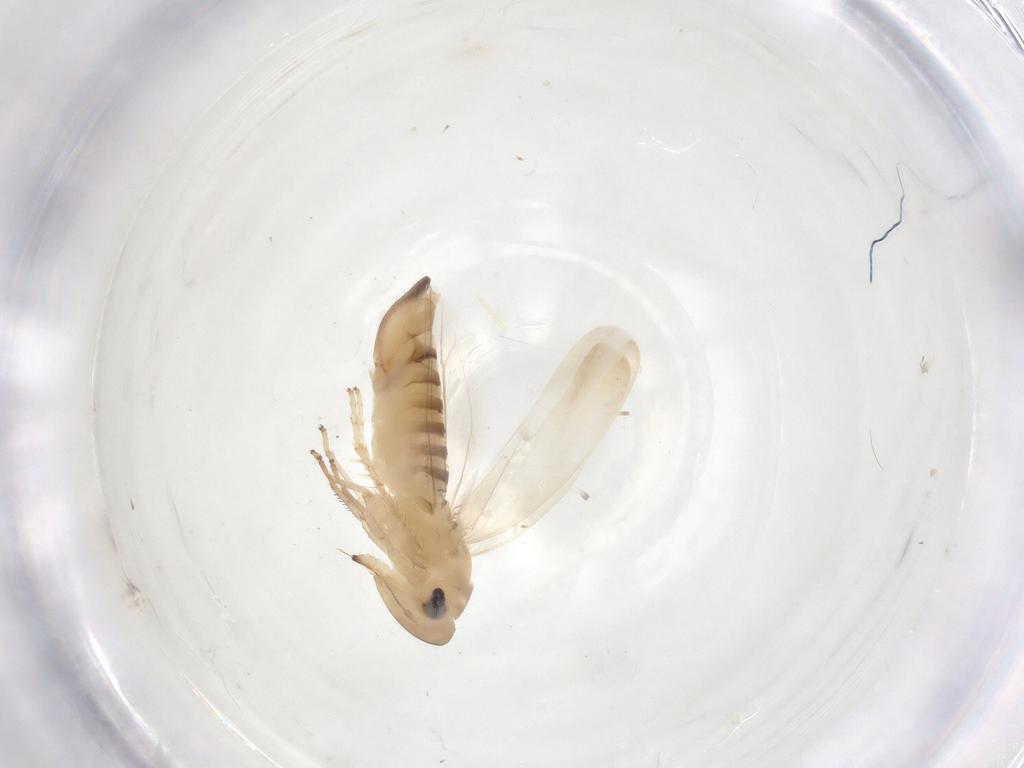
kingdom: Animalia
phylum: Arthropoda
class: Insecta
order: Hemiptera
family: Cicadellidae
